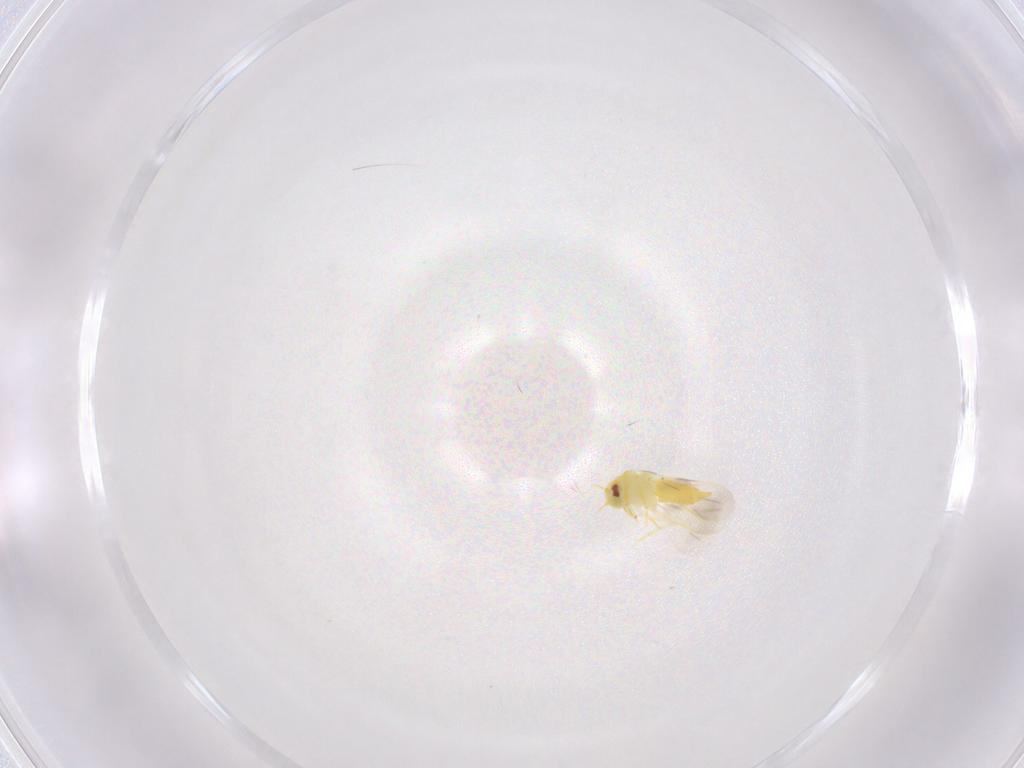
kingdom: Animalia
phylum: Arthropoda
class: Insecta
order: Hemiptera
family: Aleyrodidae
